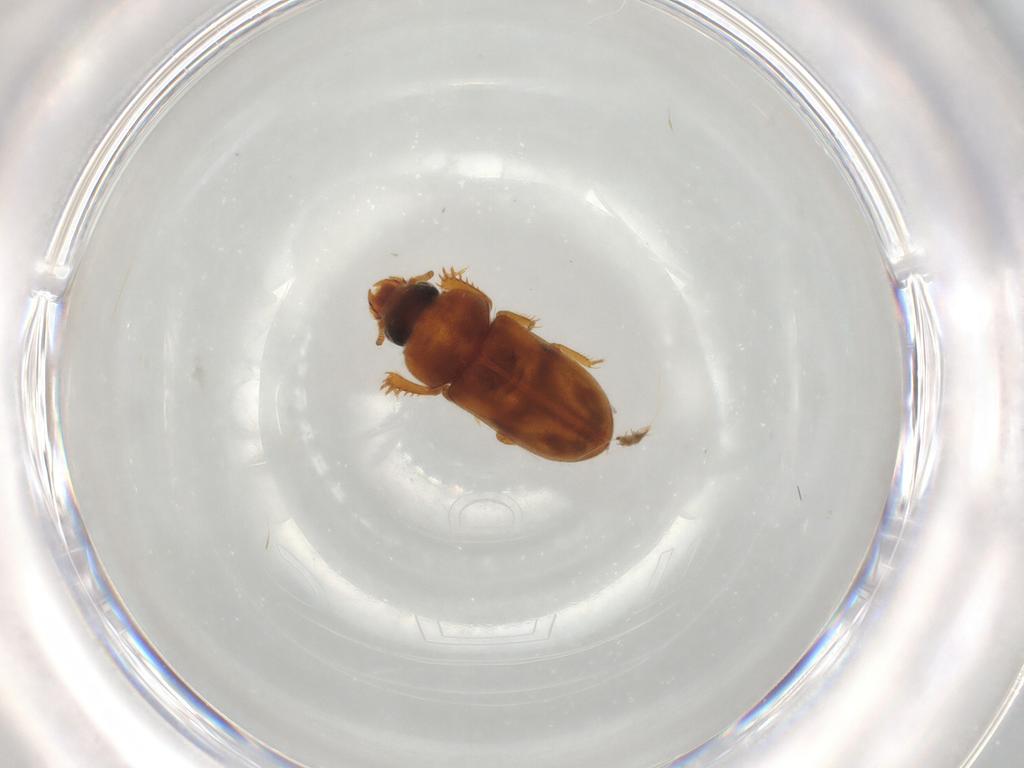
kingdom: Animalia
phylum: Arthropoda
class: Insecta
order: Coleoptera
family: Heteroceridae
